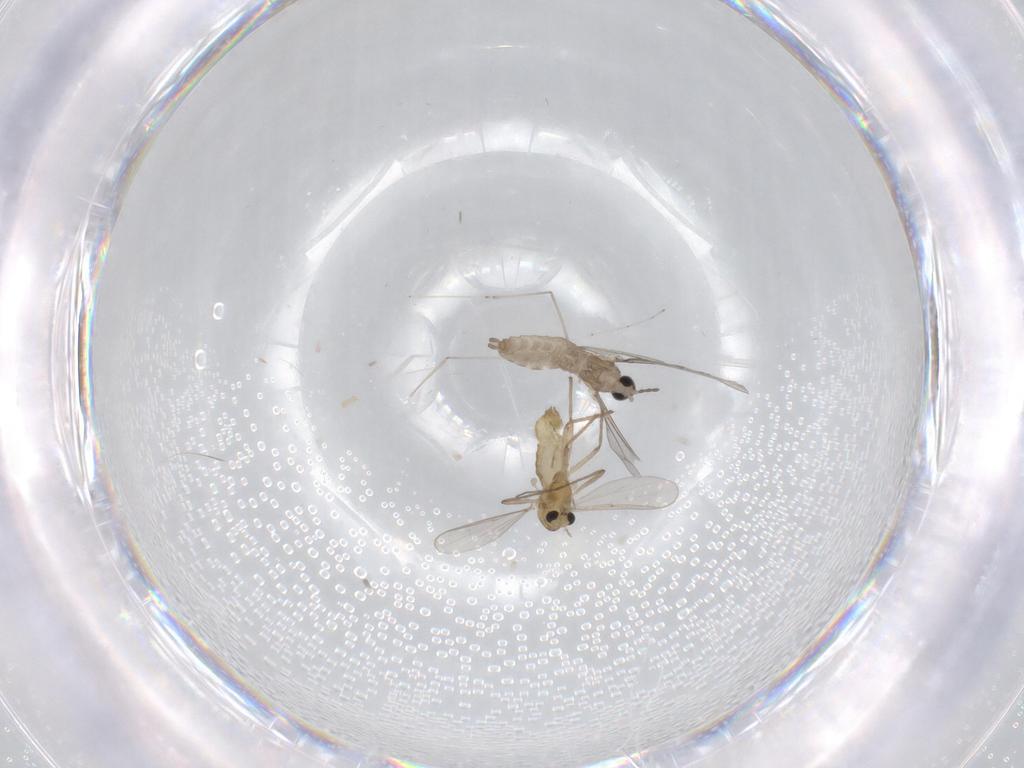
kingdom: Animalia
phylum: Arthropoda
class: Insecta
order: Diptera
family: Cecidomyiidae
